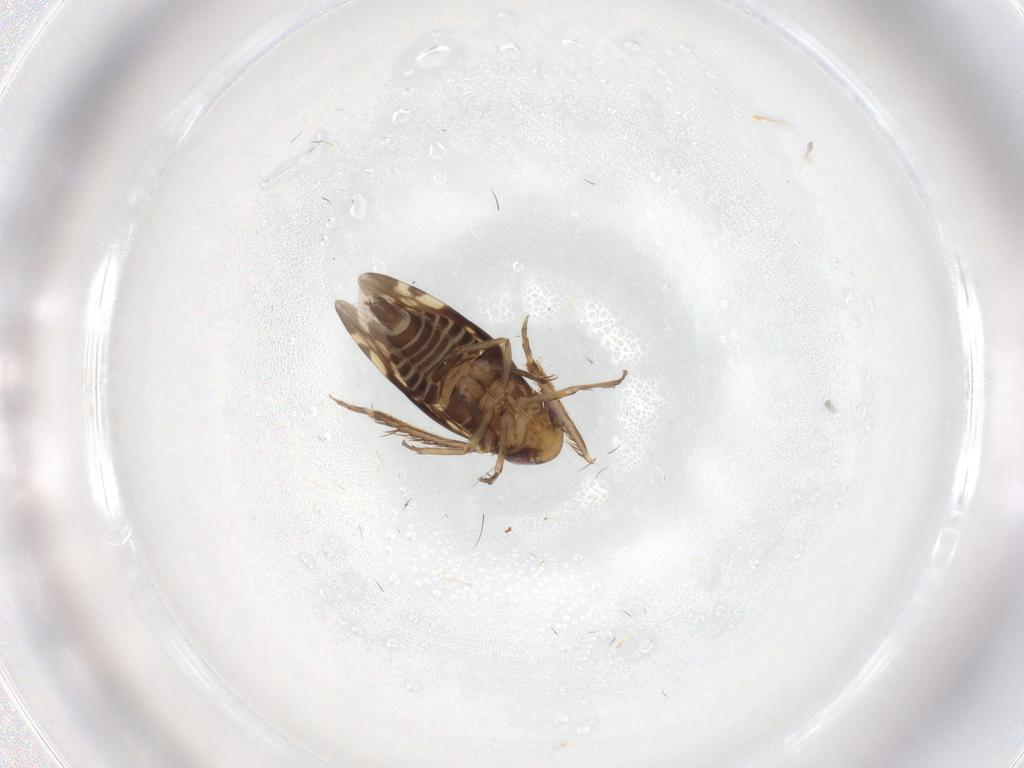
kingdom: Animalia
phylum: Arthropoda
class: Insecta
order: Hemiptera
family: Cicadellidae
